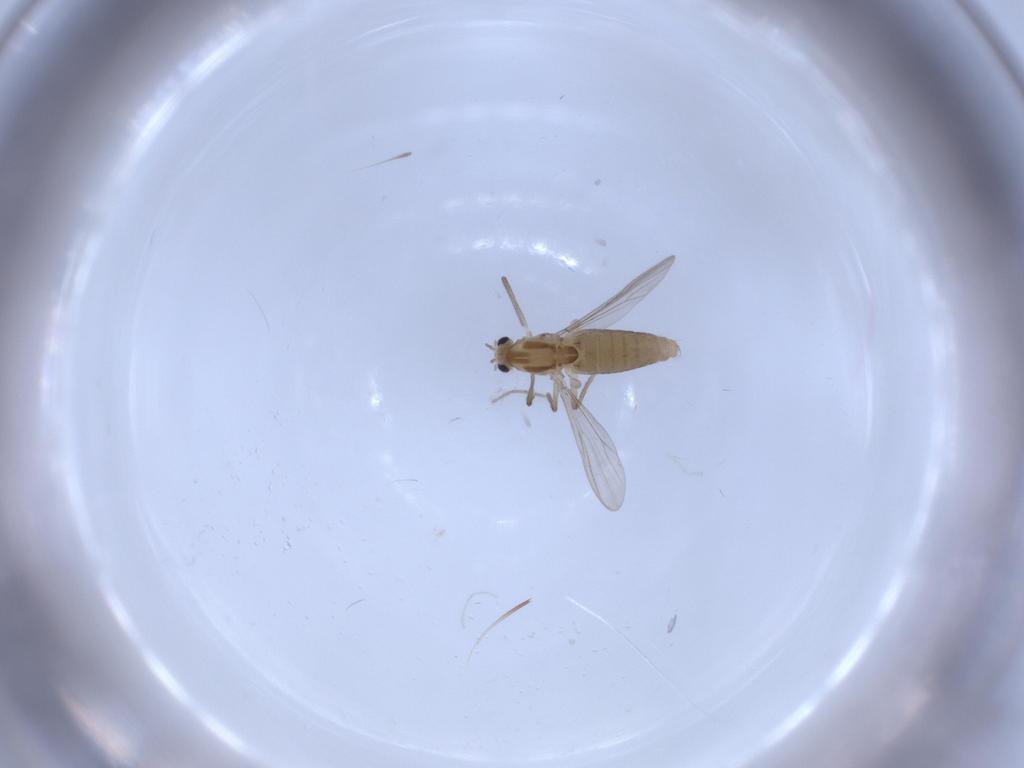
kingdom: Animalia
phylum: Arthropoda
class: Insecta
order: Diptera
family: Chironomidae
